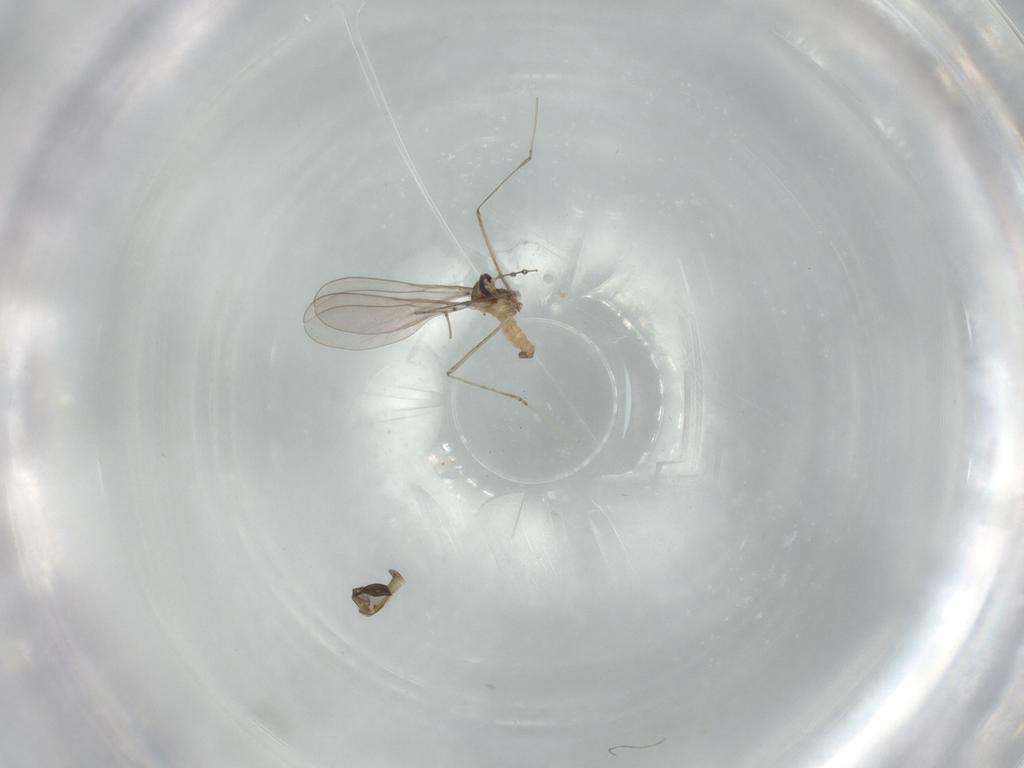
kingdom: Animalia
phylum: Arthropoda
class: Insecta
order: Diptera
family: Cecidomyiidae
